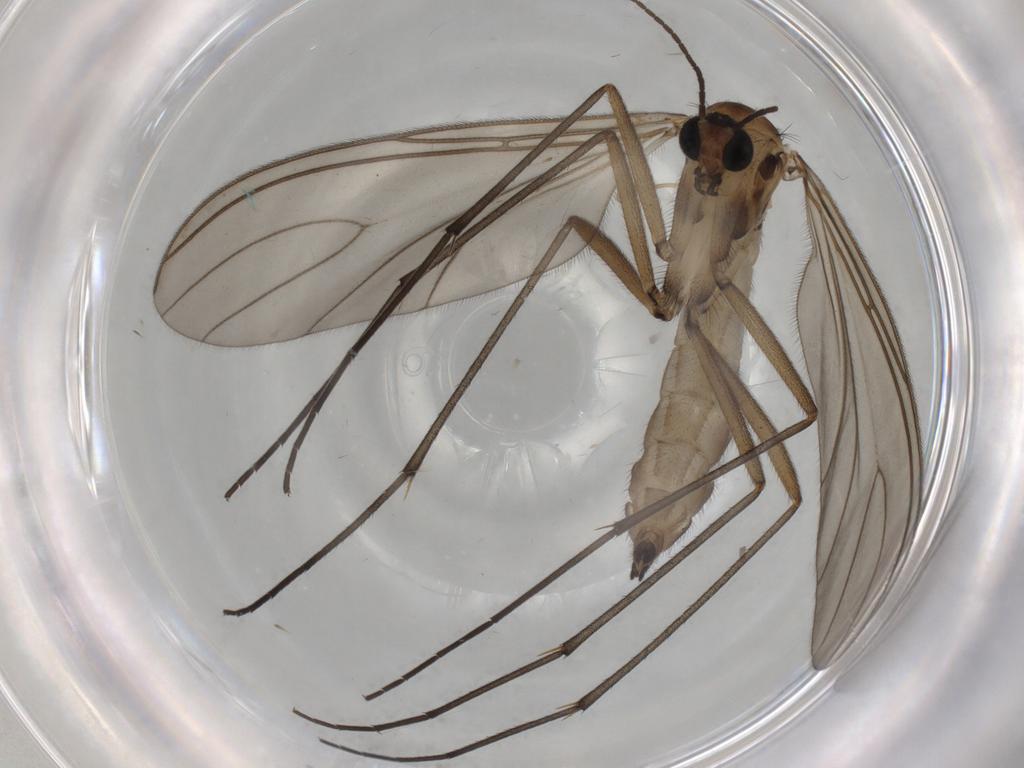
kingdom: Animalia
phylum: Arthropoda
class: Insecta
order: Diptera
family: Sciaridae
